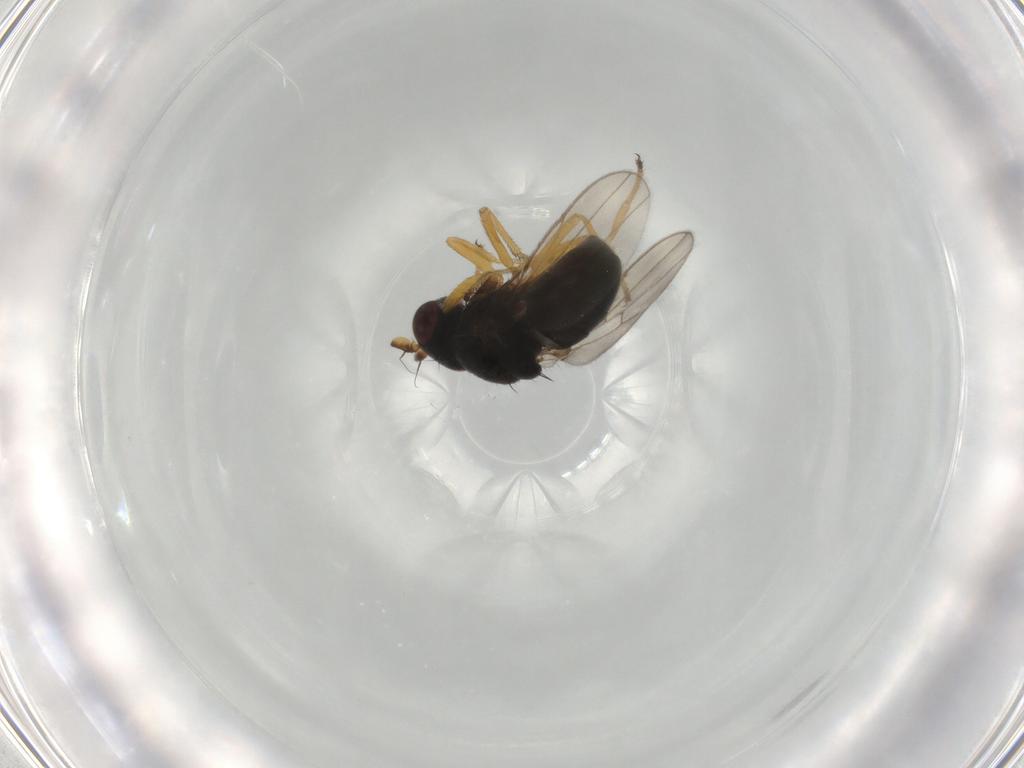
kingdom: Animalia
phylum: Arthropoda
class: Insecta
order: Diptera
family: Ephydridae
